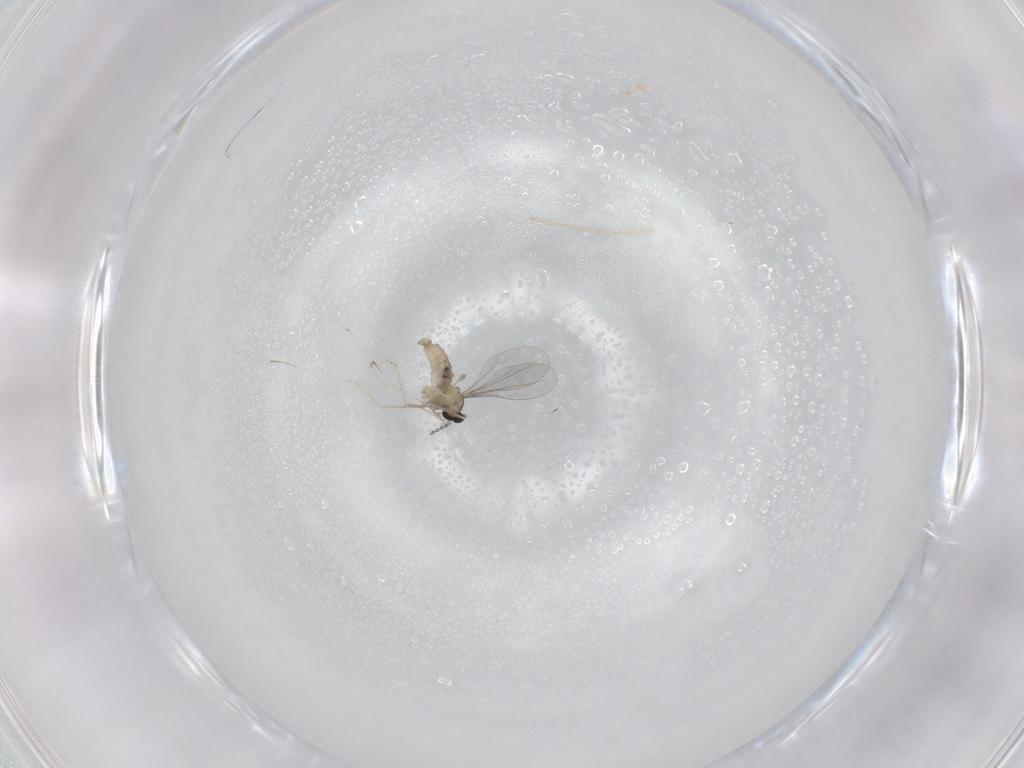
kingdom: Animalia
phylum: Arthropoda
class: Insecta
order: Diptera
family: Cecidomyiidae
